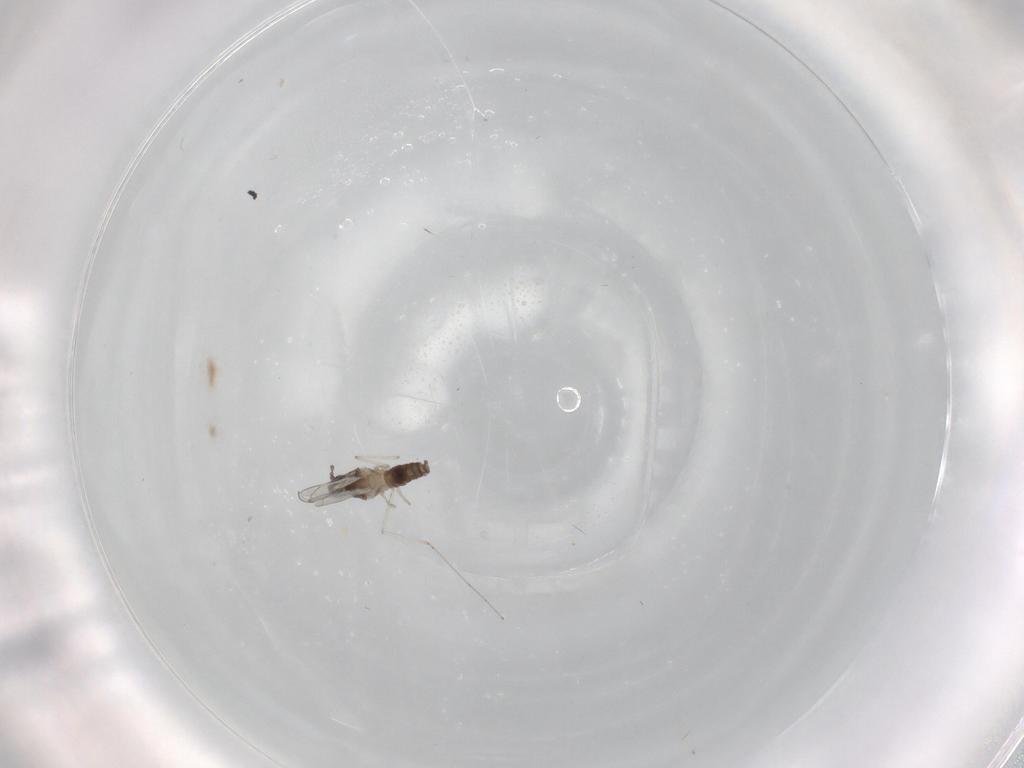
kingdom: Animalia
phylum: Arthropoda
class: Insecta
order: Diptera
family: Cecidomyiidae
